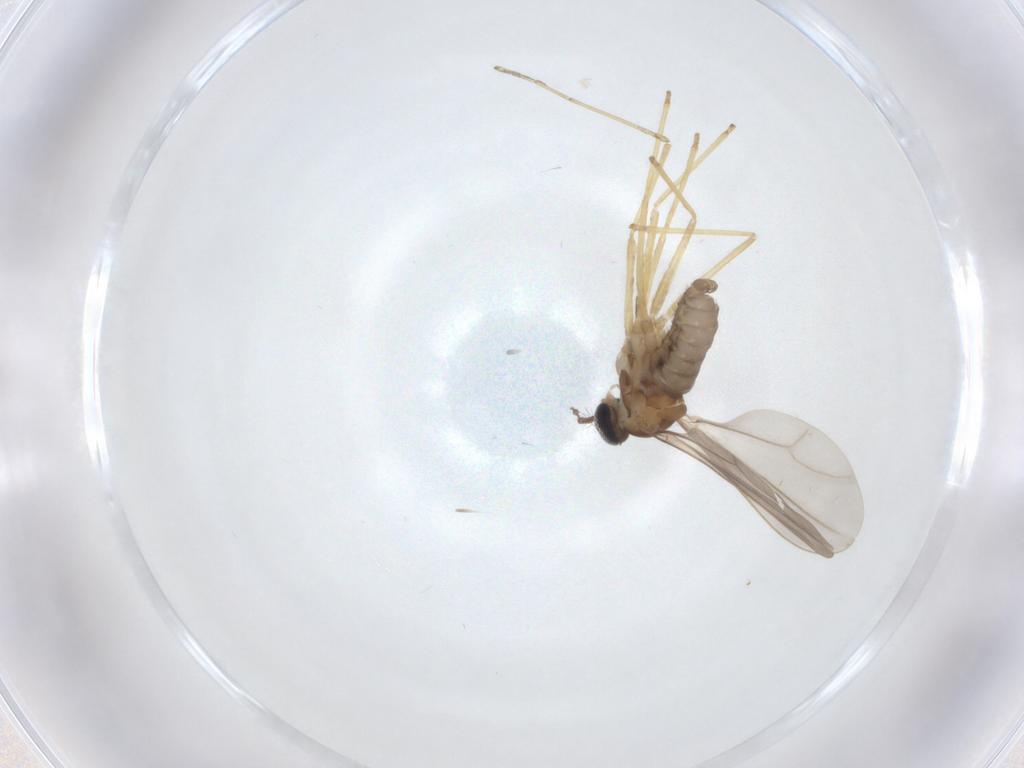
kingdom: Animalia
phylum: Arthropoda
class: Insecta
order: Diptera
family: Cecidomyiidae
